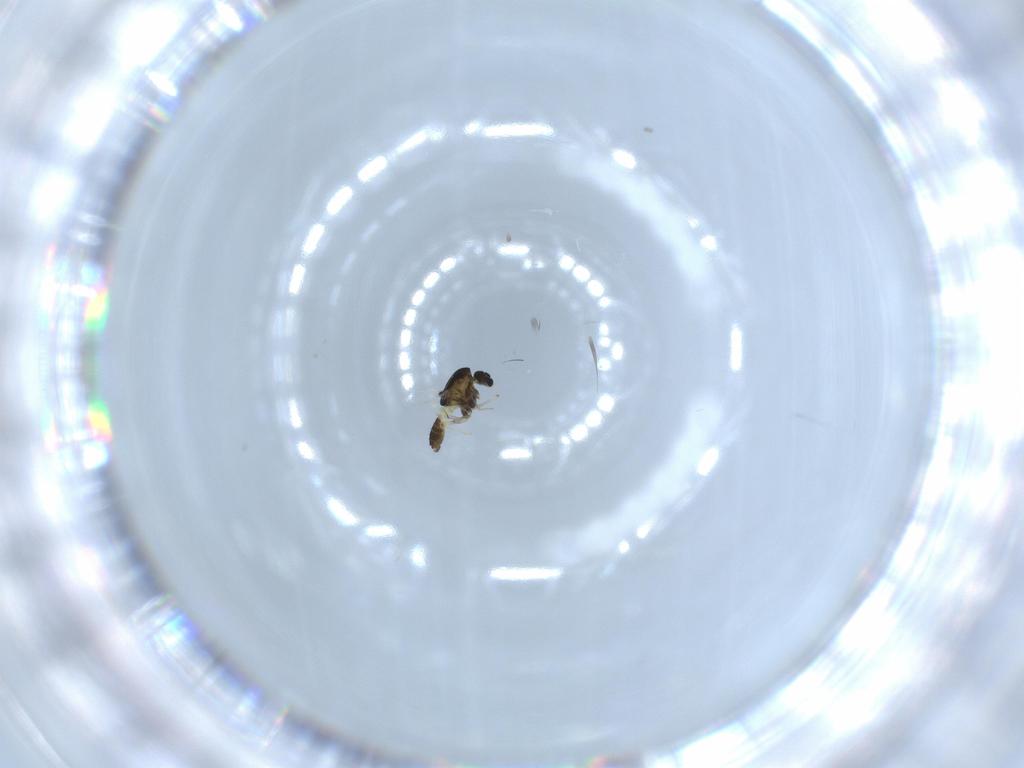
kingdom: Animalia
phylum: Arthropoda
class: Insecta
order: Diptera
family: Chironomidae
